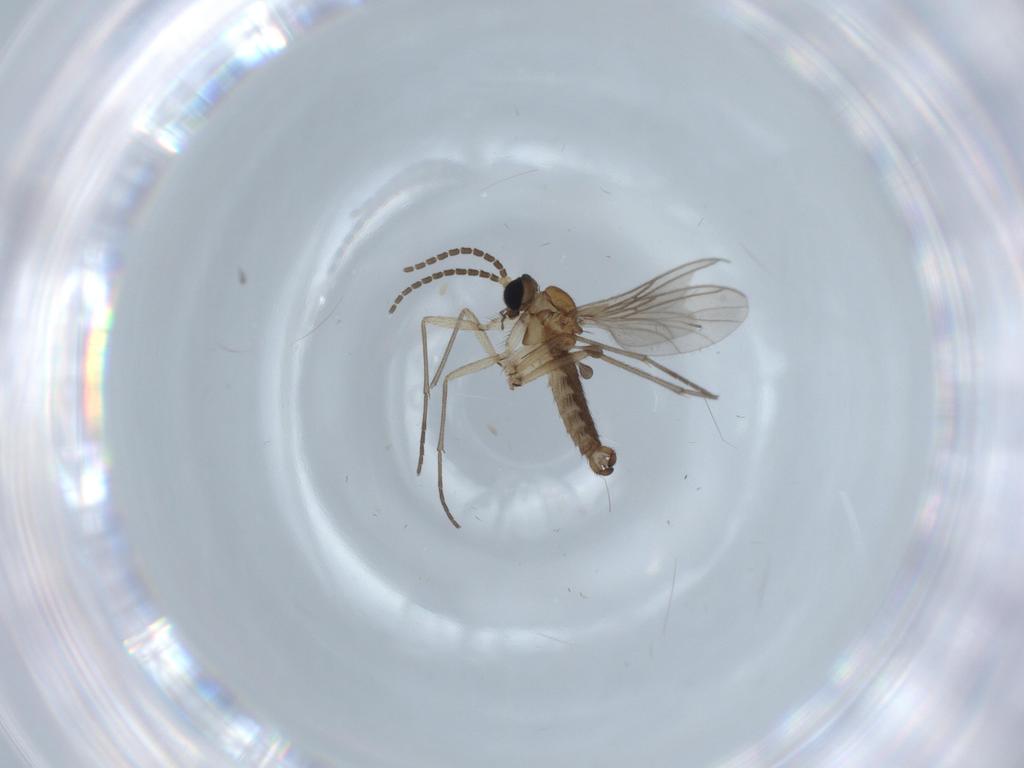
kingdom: Animalia
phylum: Arthropoda
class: Insecta
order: Diptera
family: Sciaridae
